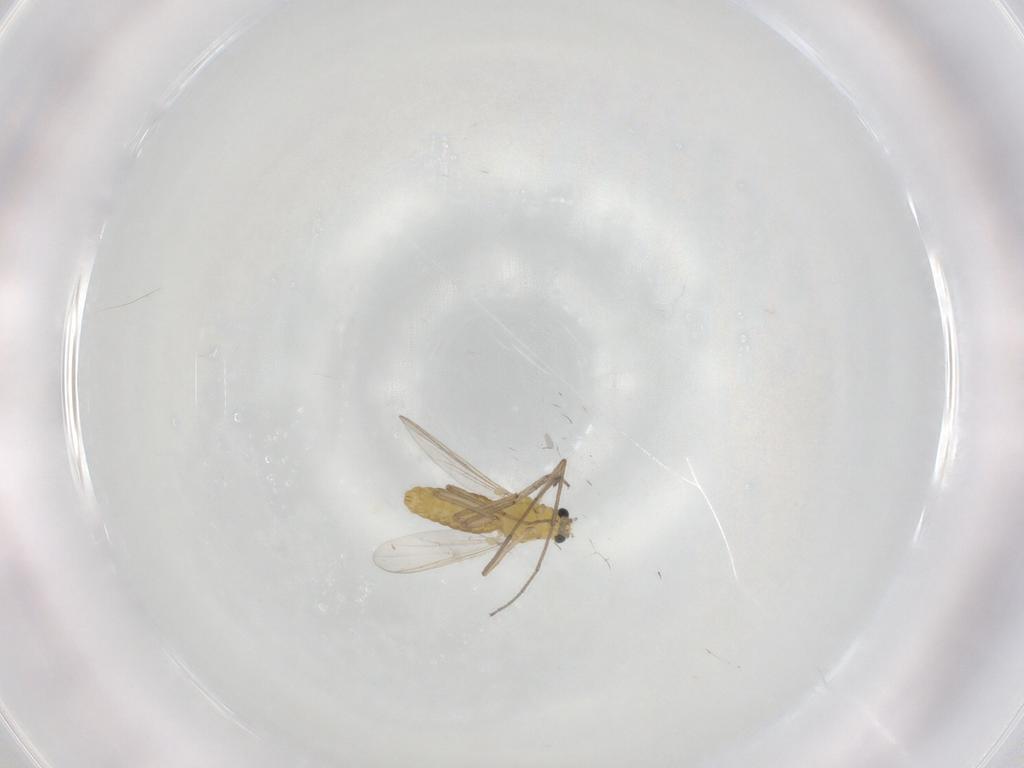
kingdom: Animalia
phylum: Arthropoda
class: Insecta
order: Diptera
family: Chironomidae
